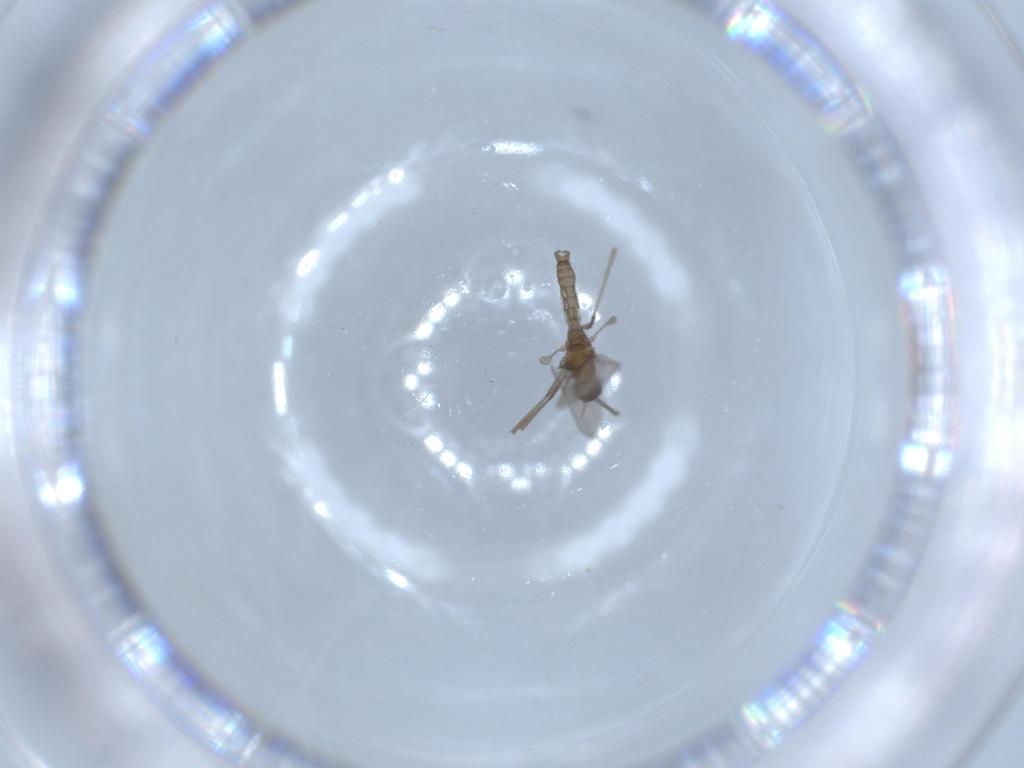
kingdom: Animalia
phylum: Arthropoda
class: Insecta
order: Diptera
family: Cecidomyiidae
